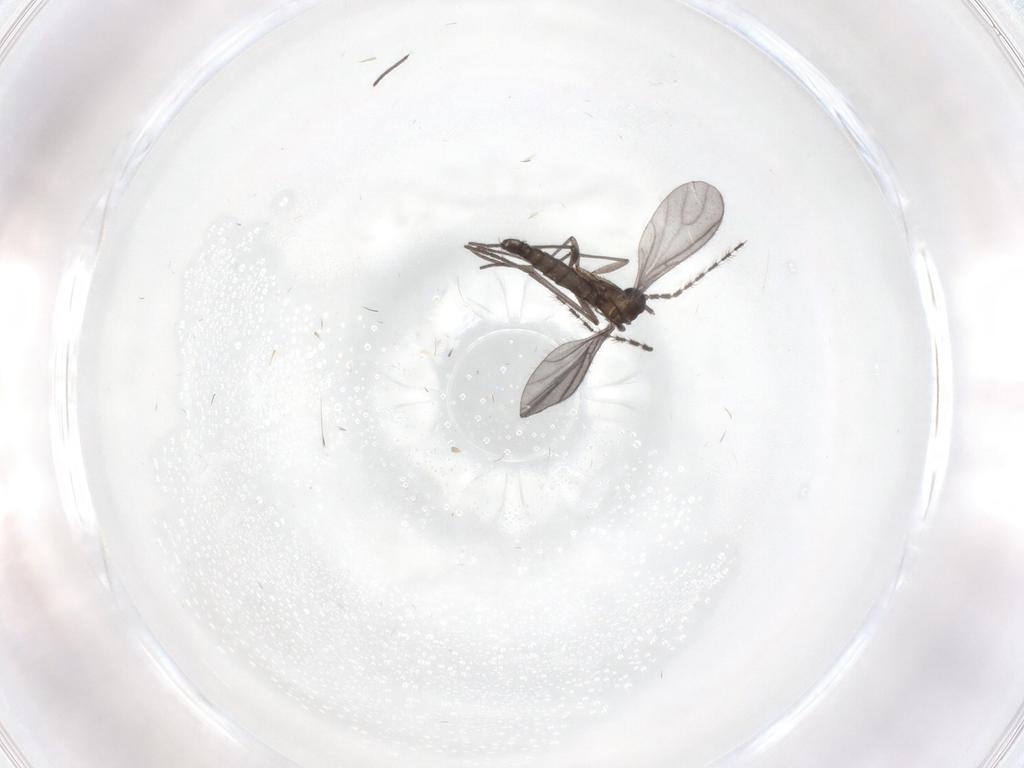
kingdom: Animalia
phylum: Arthropoda
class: Insecta
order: Diptera
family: Sciaridae
